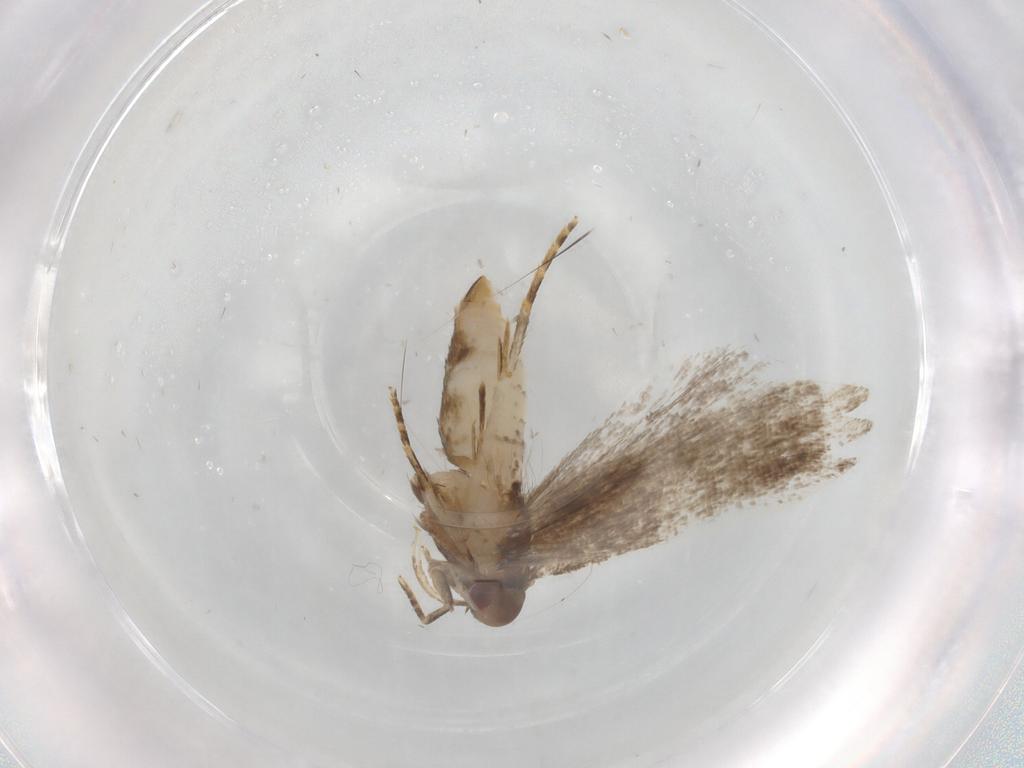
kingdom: Animalia
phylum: Arthropoda
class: Insecta
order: Lepidoptera
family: Gelechiidae
